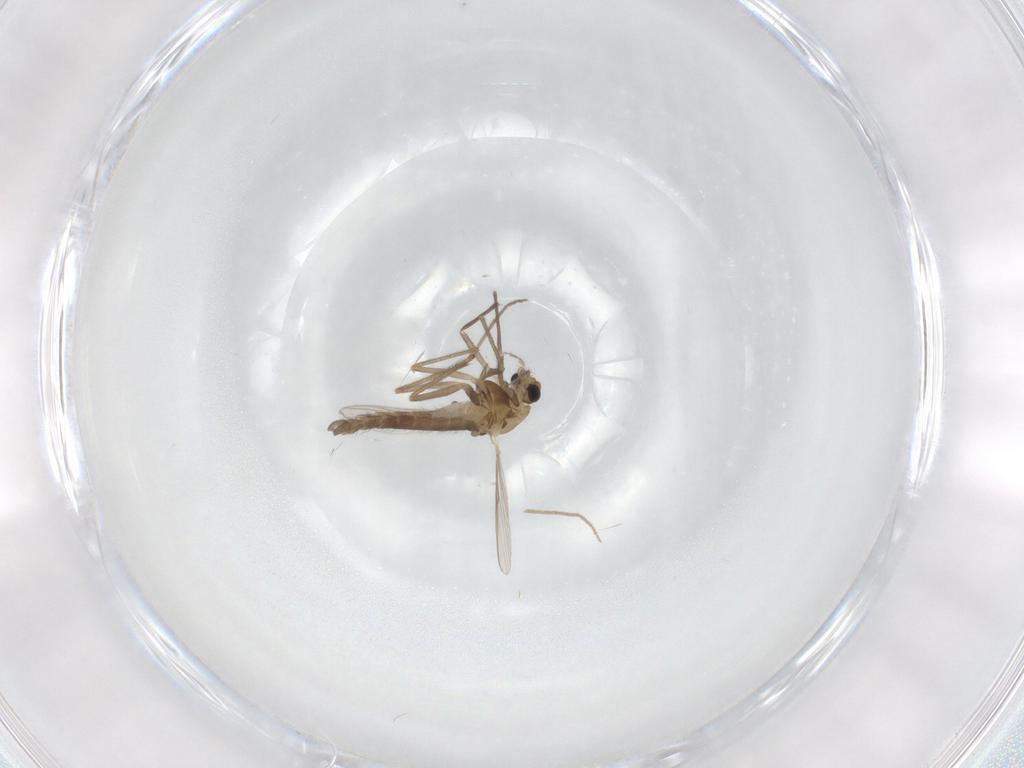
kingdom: Animalia
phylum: Arthropoda
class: Insecta
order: Diptera
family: Chironomidae
